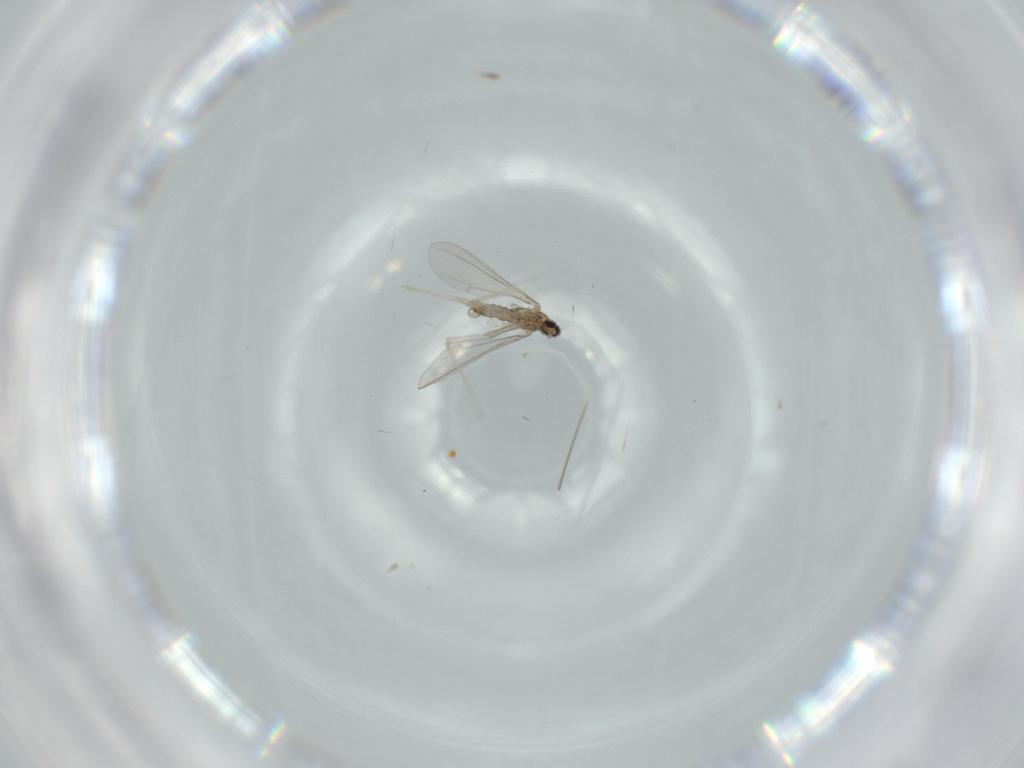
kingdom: Animalia
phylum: Arthropoda
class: Insecta
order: Diptera
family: Cecidomyiidae
